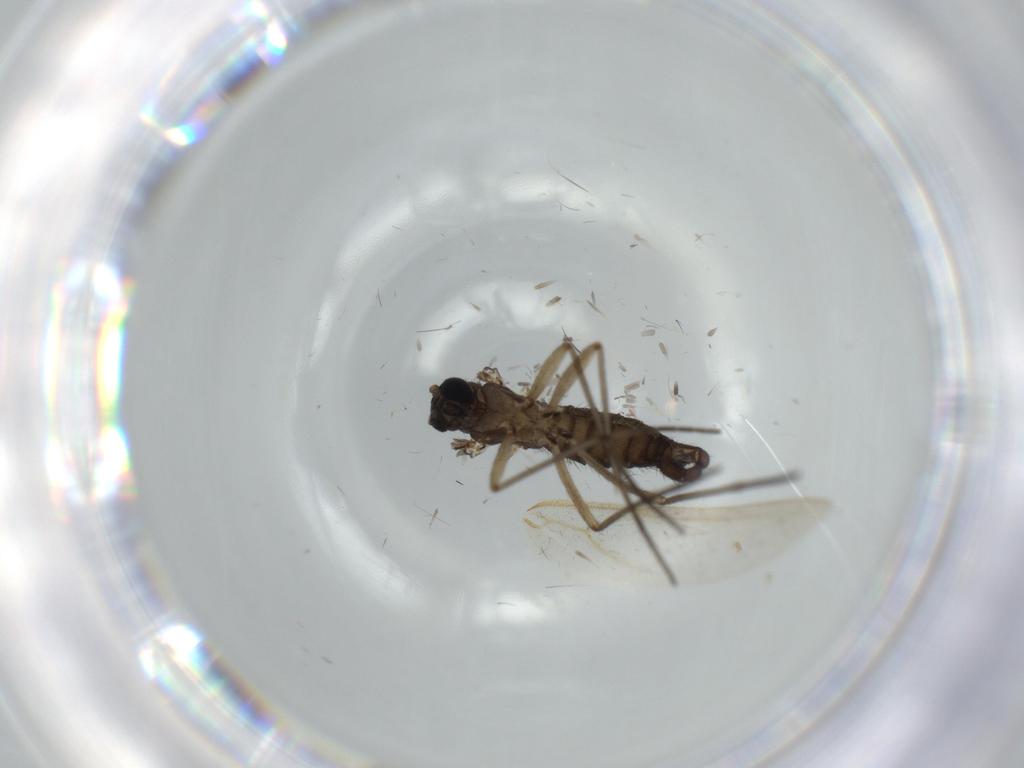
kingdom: Animalia
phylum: Arthropoda
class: Insecta
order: Diptera
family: Sciaridae
